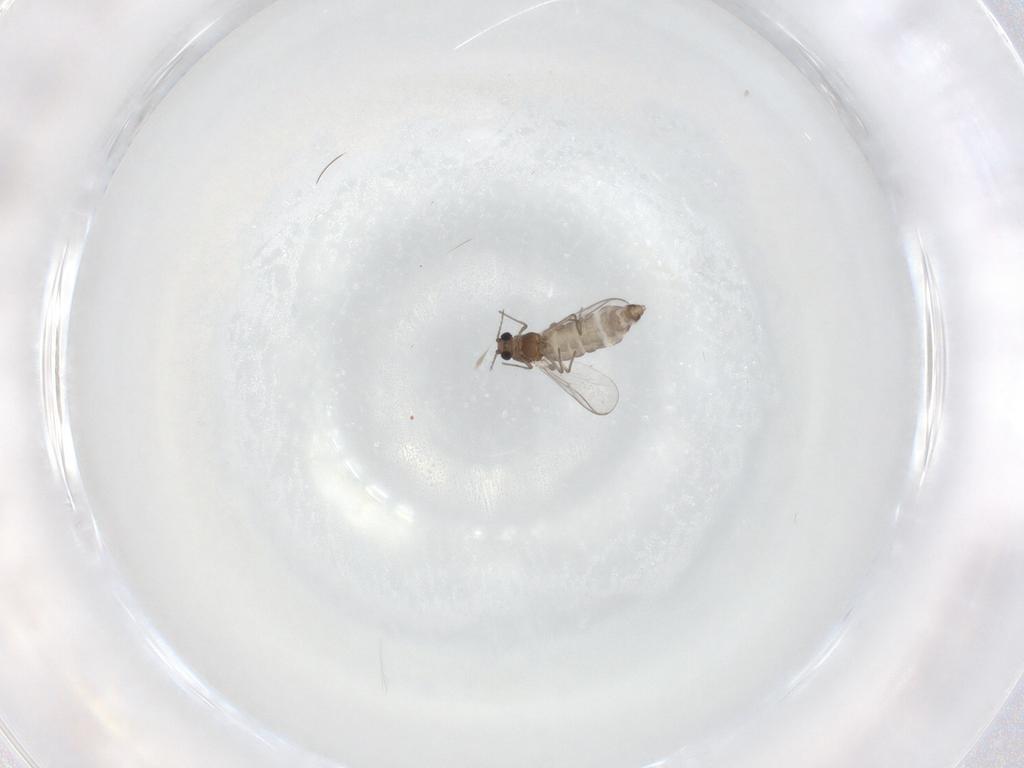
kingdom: Animalia
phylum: Arthropoda
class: Insecta
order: Diptera
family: Chironomidae
